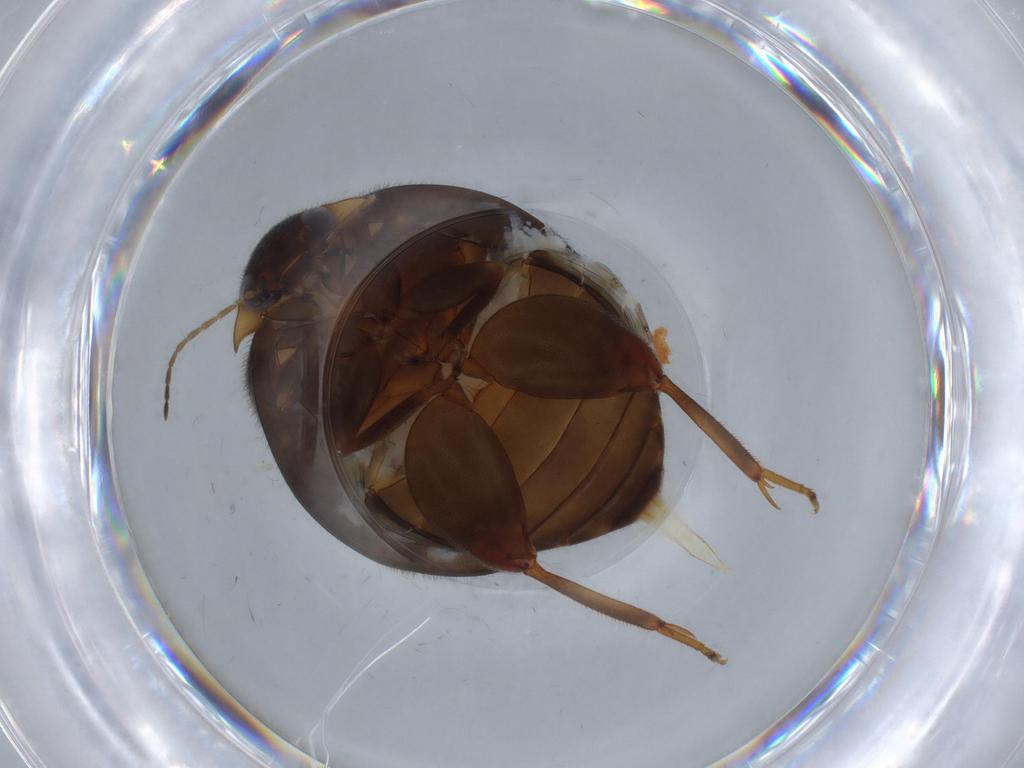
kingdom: Animalia
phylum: Arthropoda
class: Insecta
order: Coleoptera
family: Scirtidae
